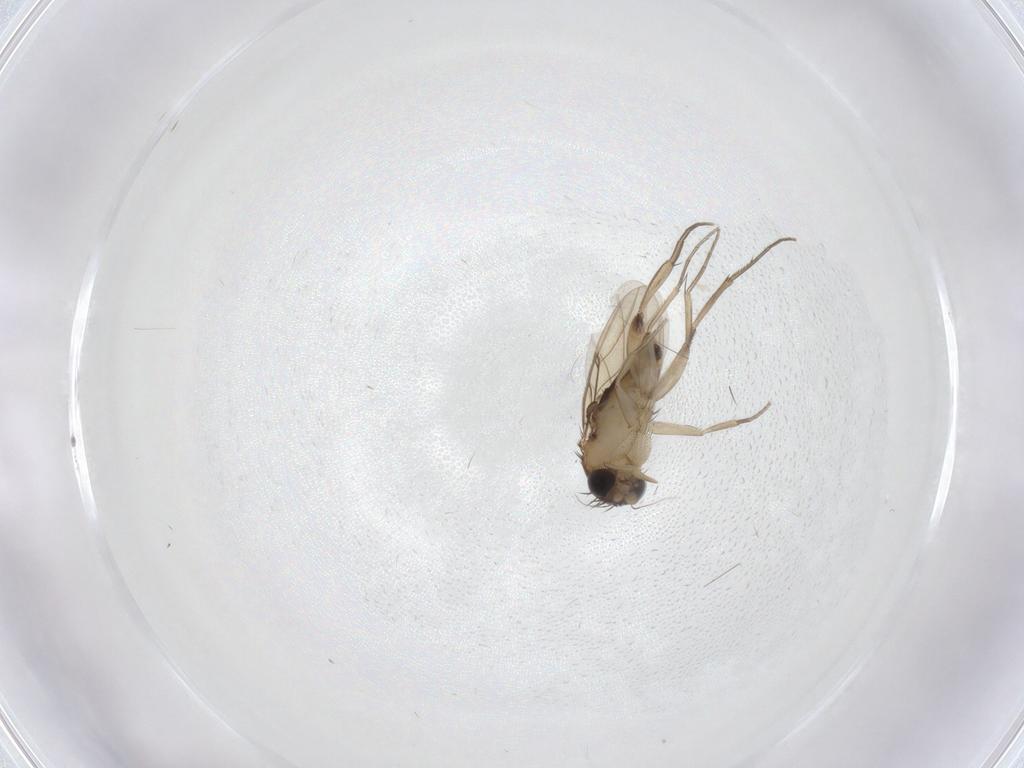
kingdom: Animalia
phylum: Arthropoda
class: Insecta
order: Diptera
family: Phoridae
